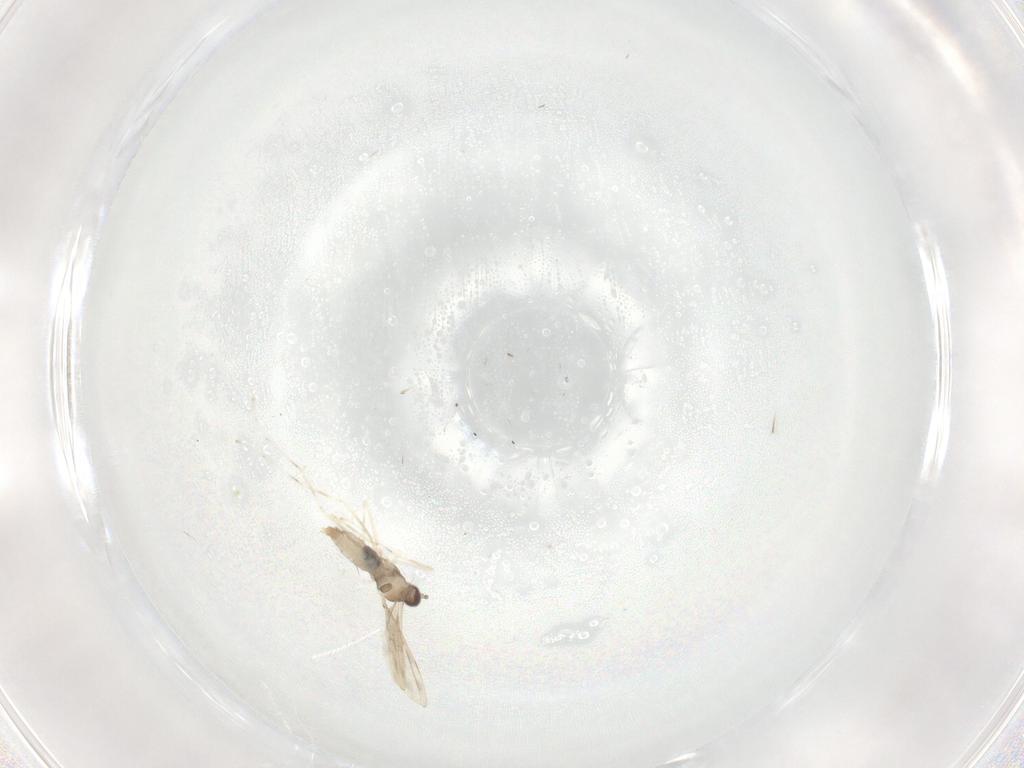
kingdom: Animalia
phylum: Arthropoda
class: Insecta
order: Diptera
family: Cecidomyiidae
